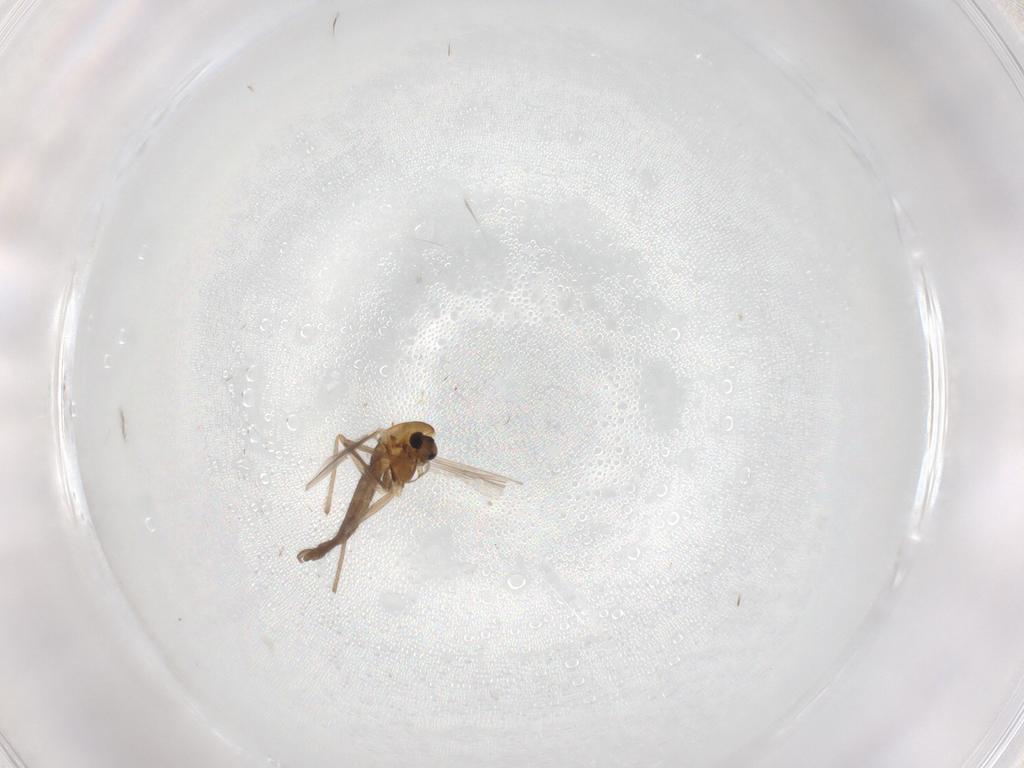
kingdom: Animalia
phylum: Arthropoda
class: Insecta
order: Diptera
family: Chironomidae
